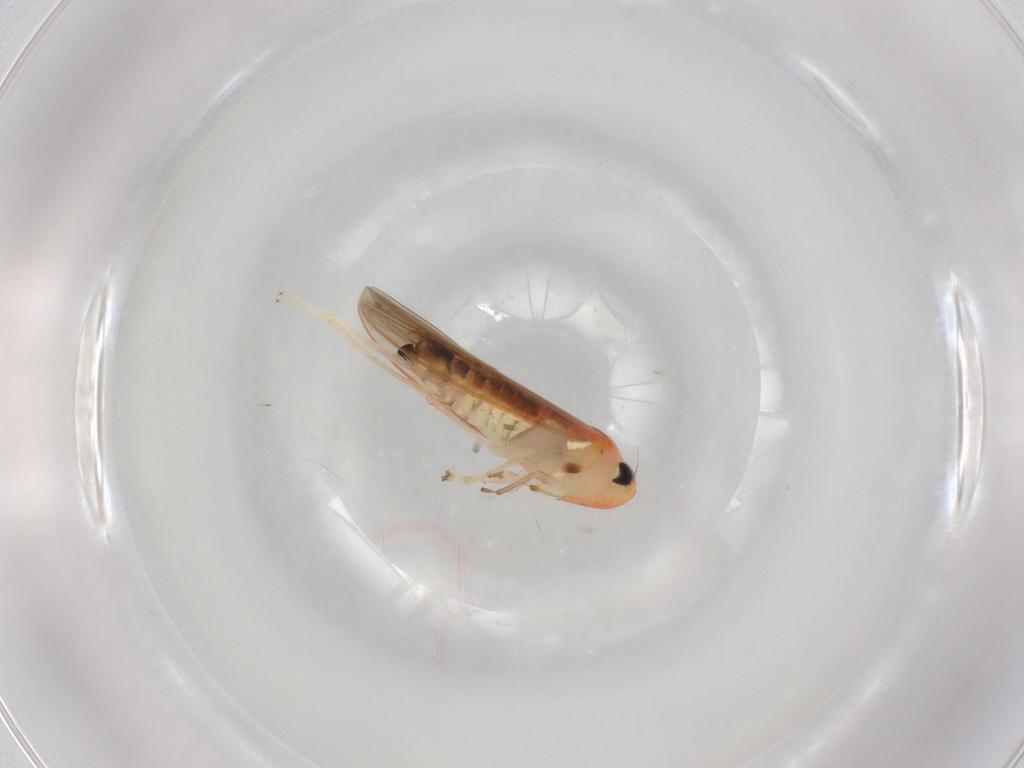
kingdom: Animalia
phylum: Arthropoda
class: Insecta
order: Hemiptera
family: Cicadellidae
